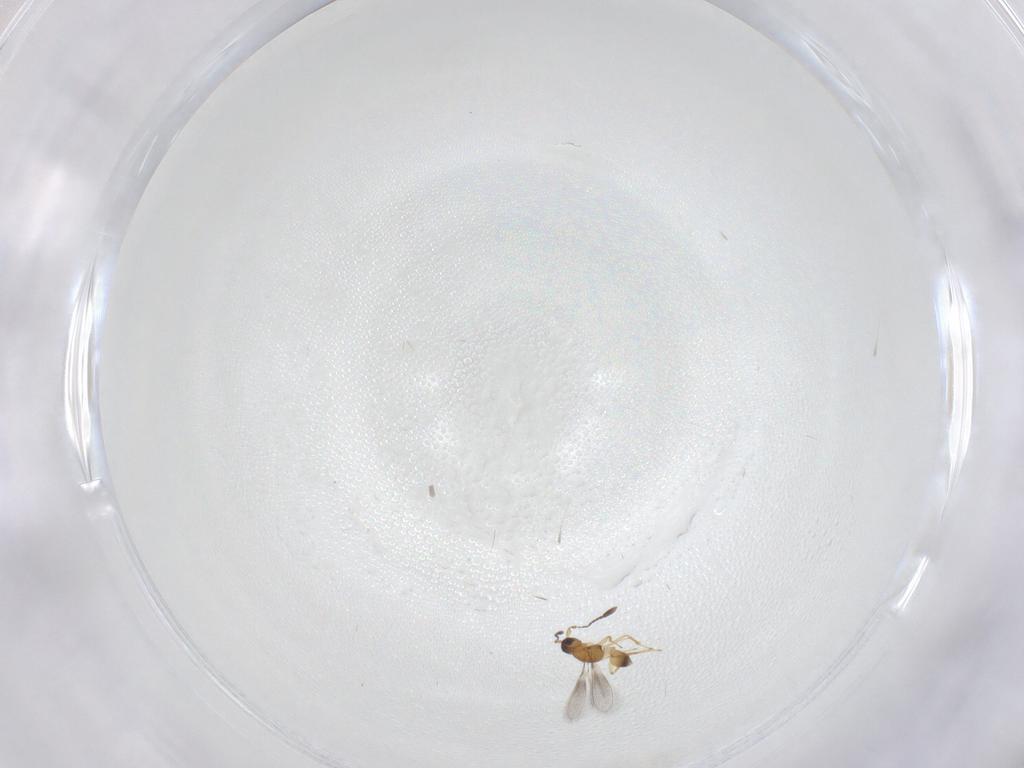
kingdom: Animalia
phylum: Arthropoda
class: Insecta
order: Hymenoptera
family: Mymaridae
